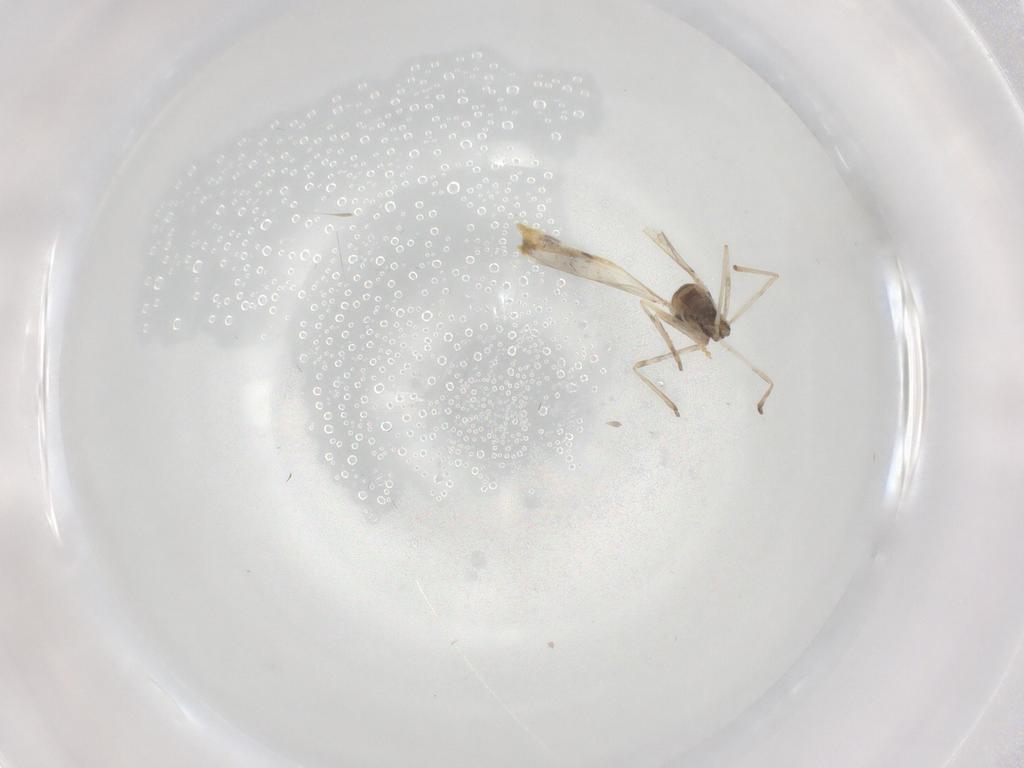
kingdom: Animalia
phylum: Arthropoda
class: Insecta
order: Diptera
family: Cecidomyiidae
